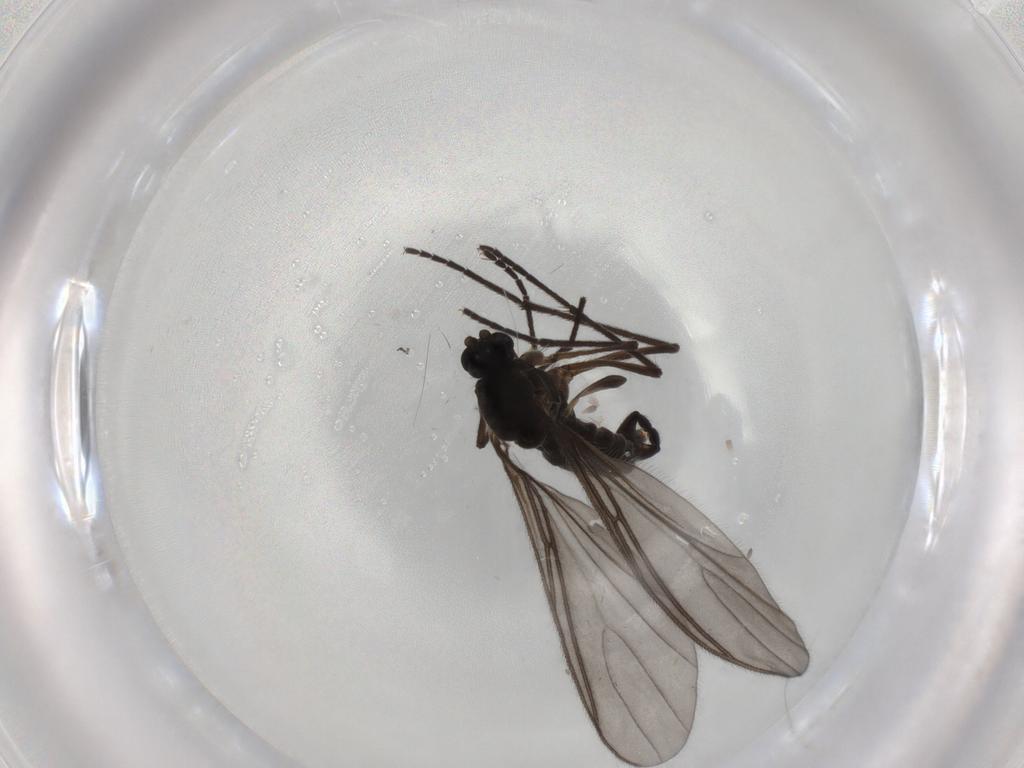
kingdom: Animalia
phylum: Arthropoda
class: Insecta
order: Diptera
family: Sciaridae
